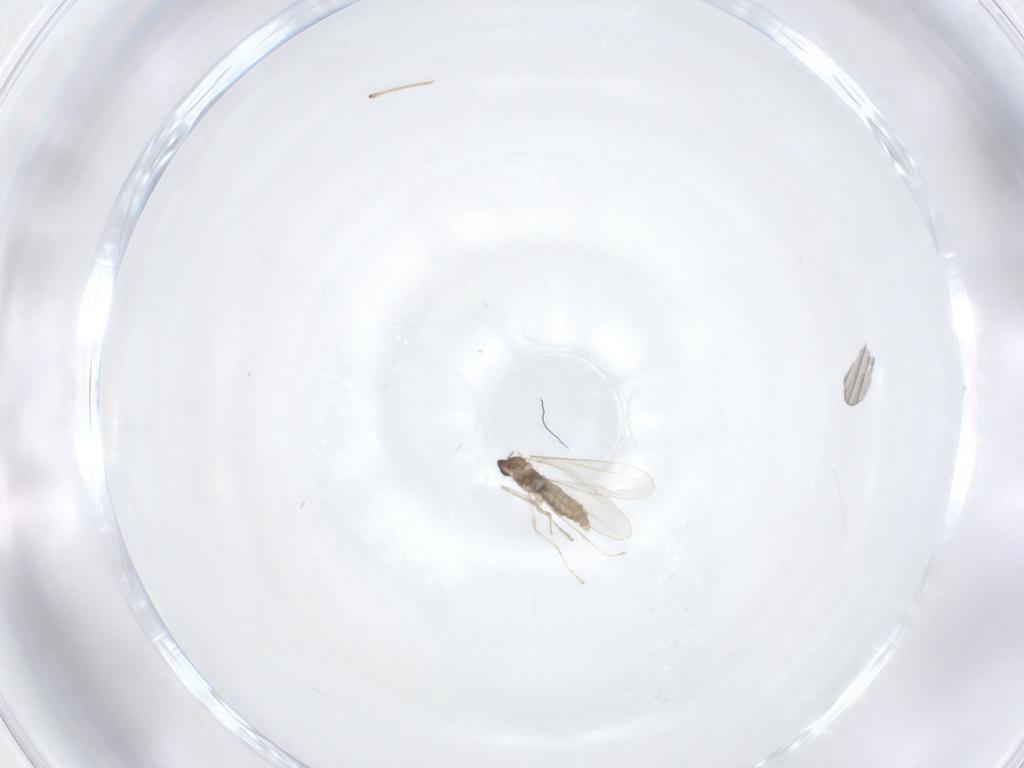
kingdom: Animalia
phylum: Arthropoda
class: Insecta
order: Diptera
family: Cecidomyiidae
